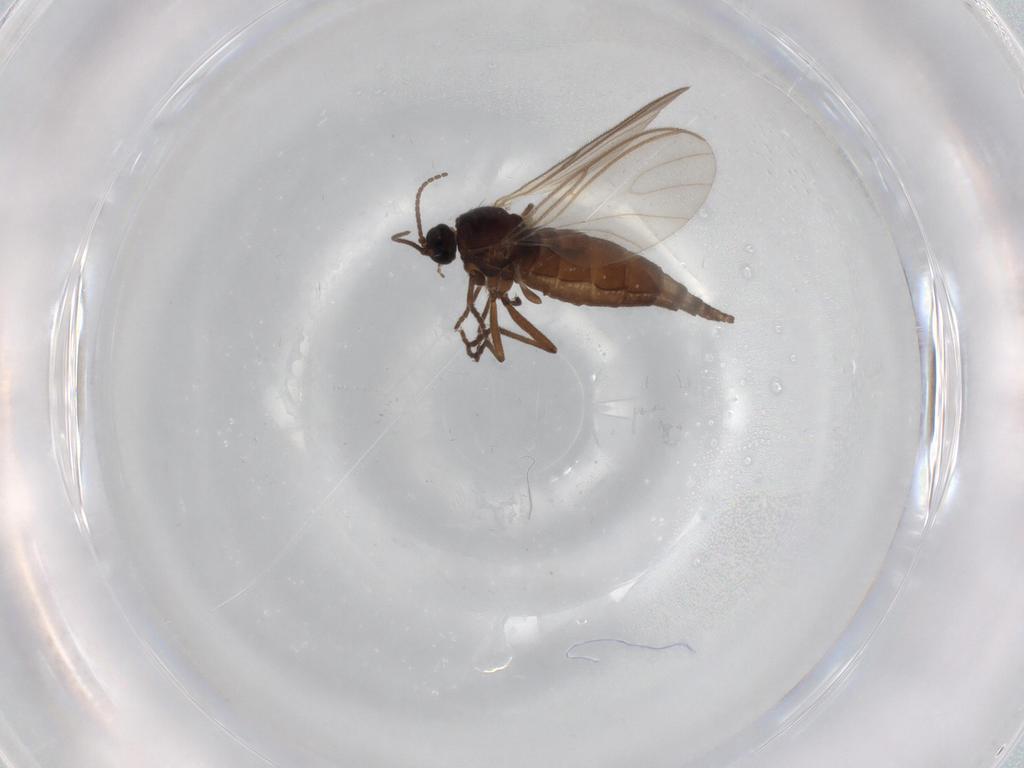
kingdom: Animalia
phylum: Arthropoda
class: Insecta
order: Diptera
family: Sciaridae
